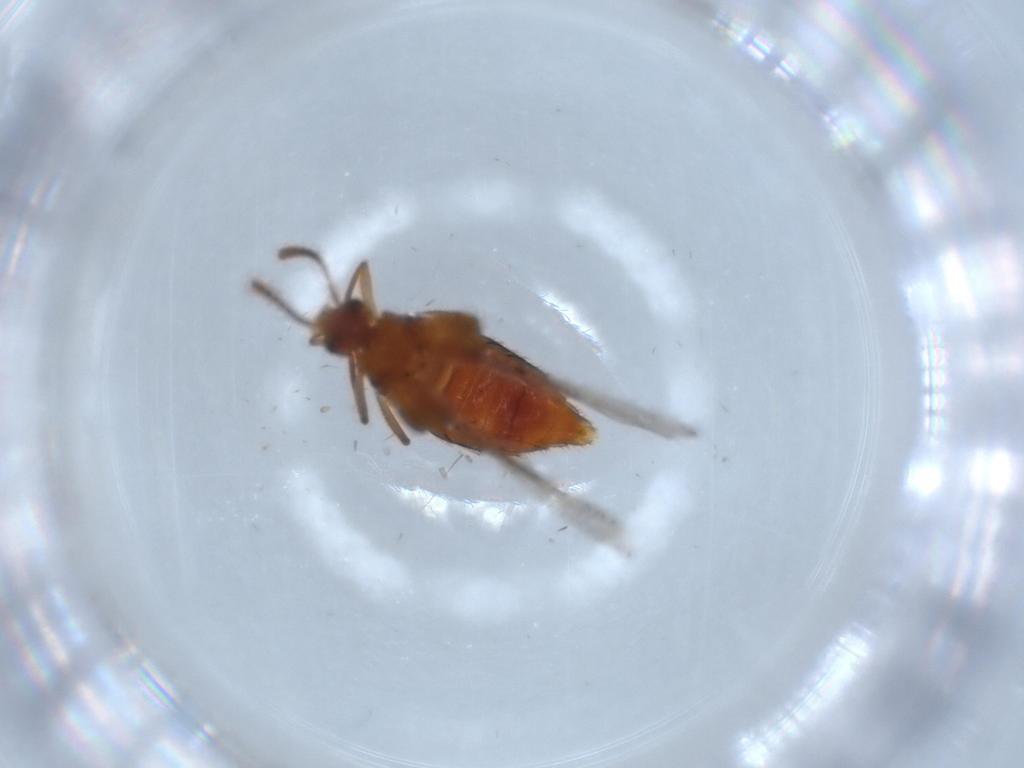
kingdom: Animalia
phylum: Arthropoda
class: Insecta
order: Coleoptera
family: Staphylinidae
